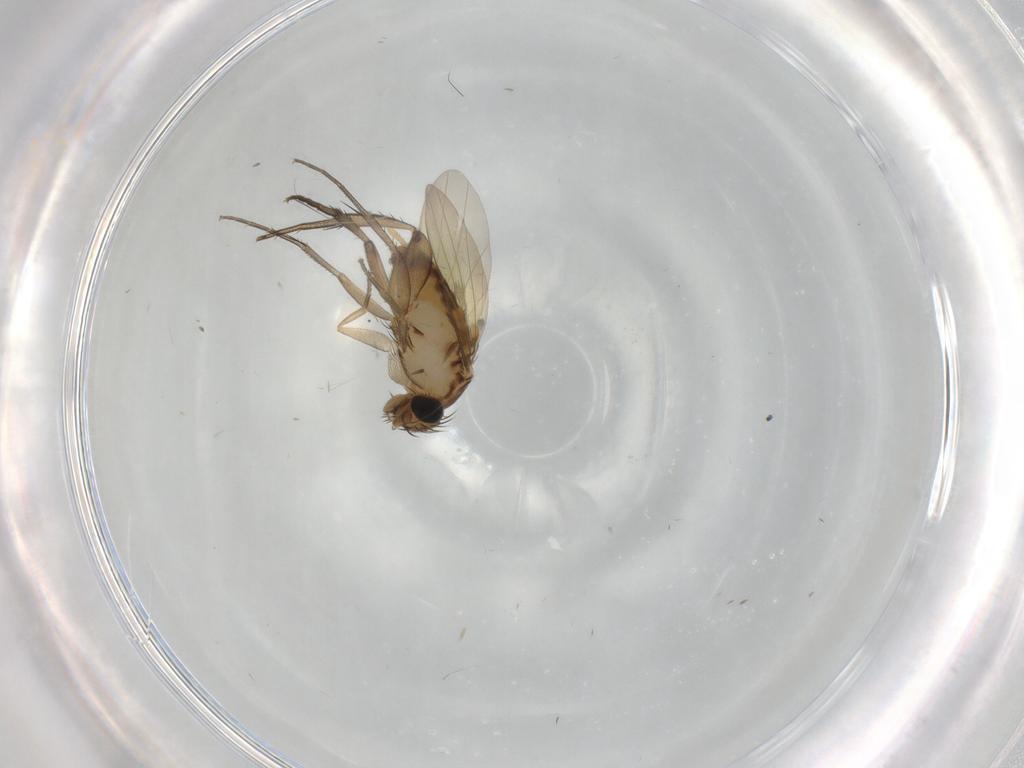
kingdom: Animalia
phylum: Arthropoda
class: Insecta
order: Diptera
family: Phoridae
